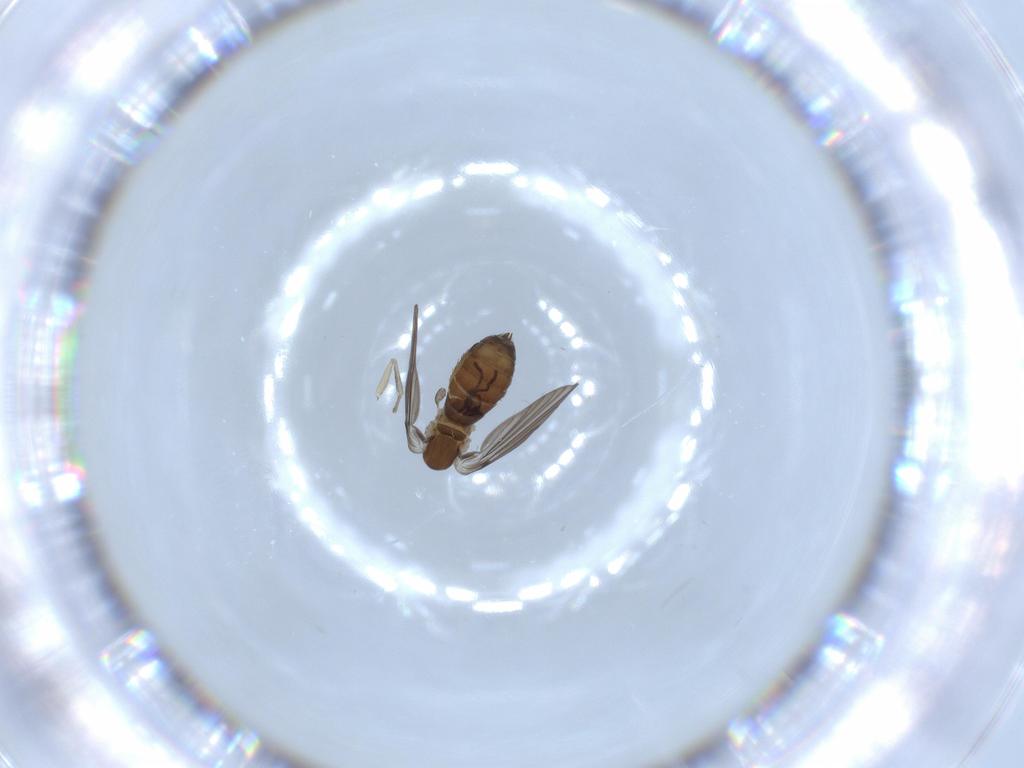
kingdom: Animalia
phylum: Arthropoda
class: Insecta
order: Diptera
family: Psychodidae
